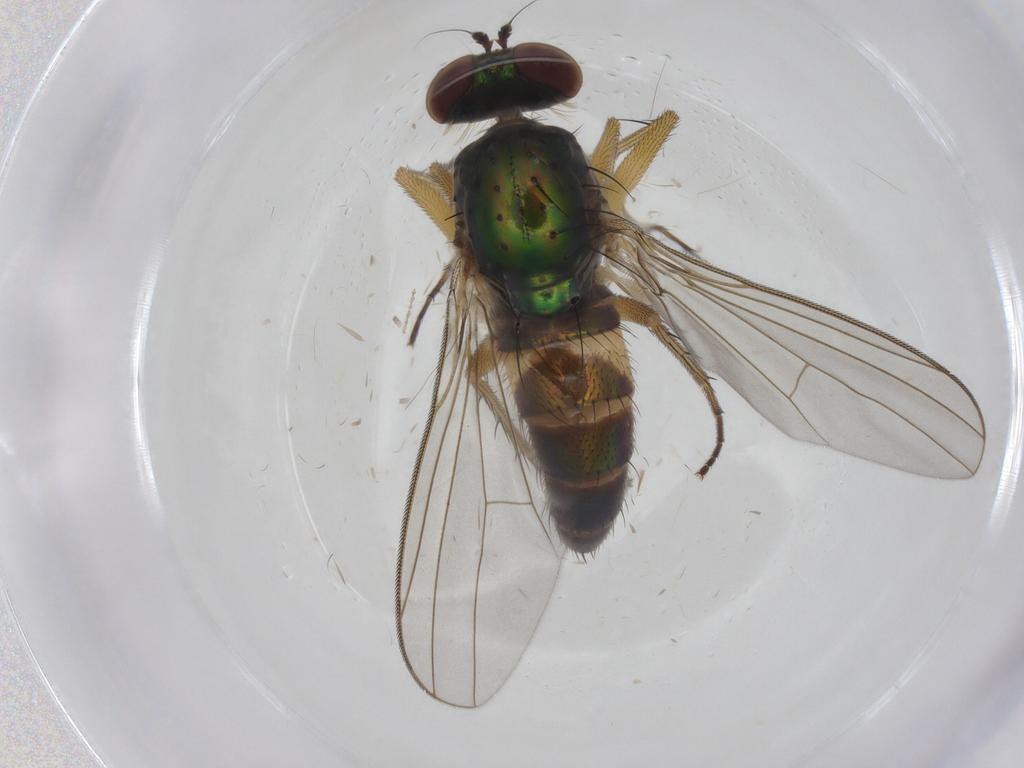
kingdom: Animalia
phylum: Arthropoda
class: Insecta
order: Diptera
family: Cecidomyiidae
